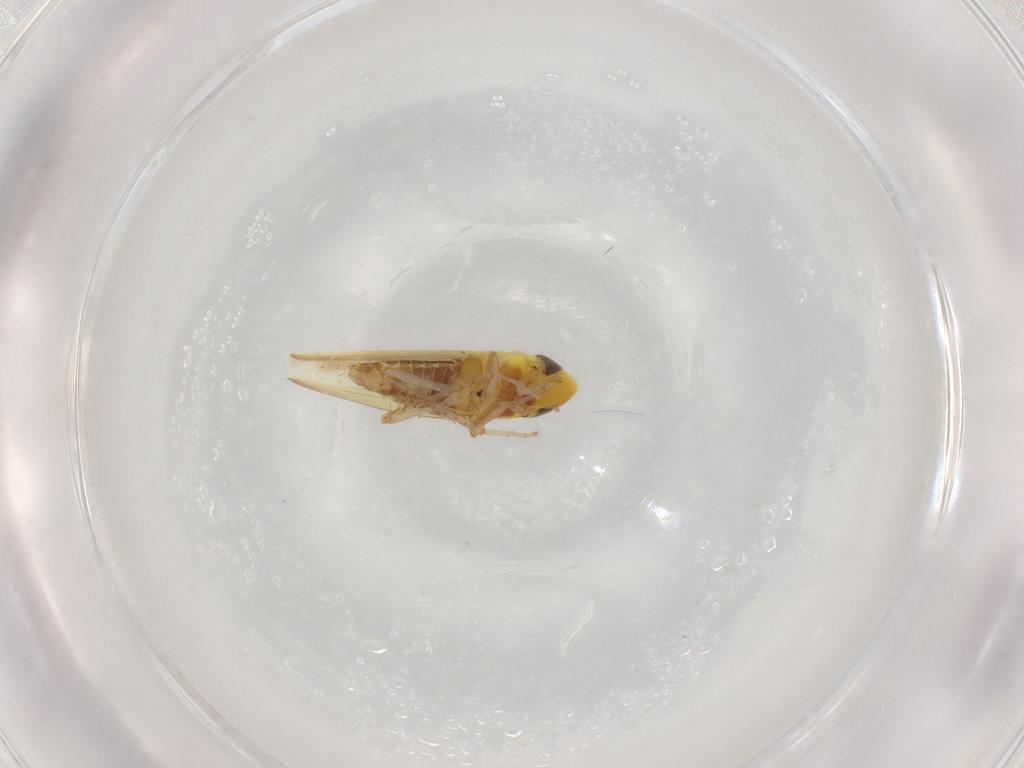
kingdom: Animalia
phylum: Arthropoda
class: Insecta
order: Hemiptera
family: Cicadellidae
